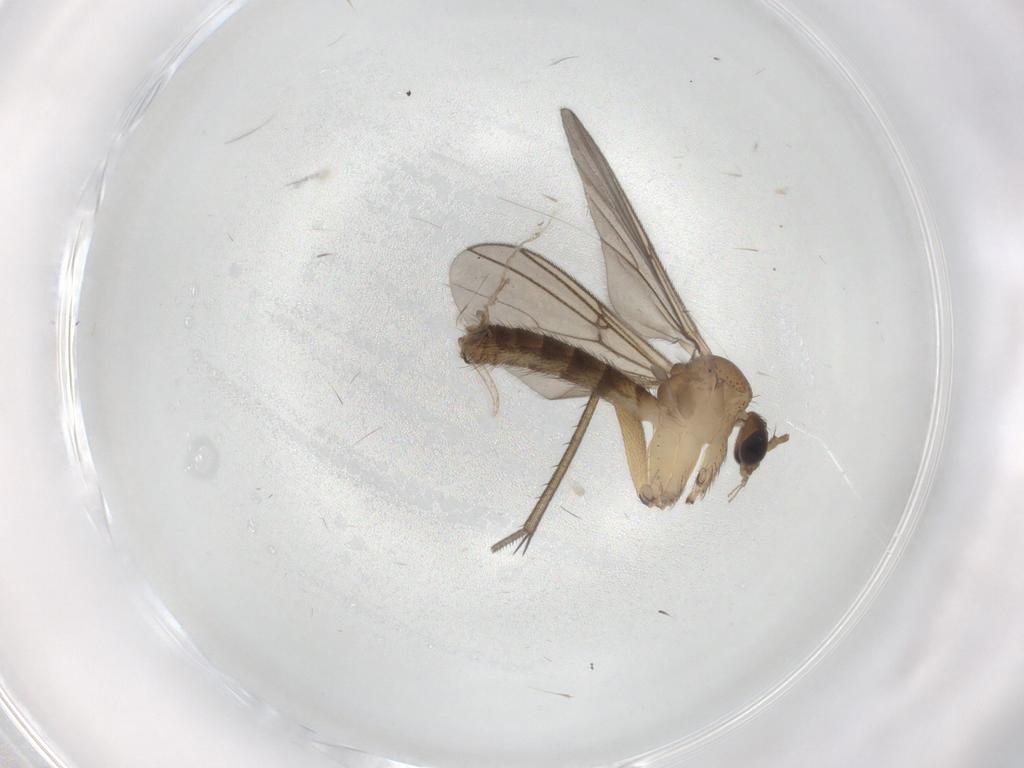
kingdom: Animalia
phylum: Arthropoda
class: Insecta
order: Diptera
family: Mycetophilidae
